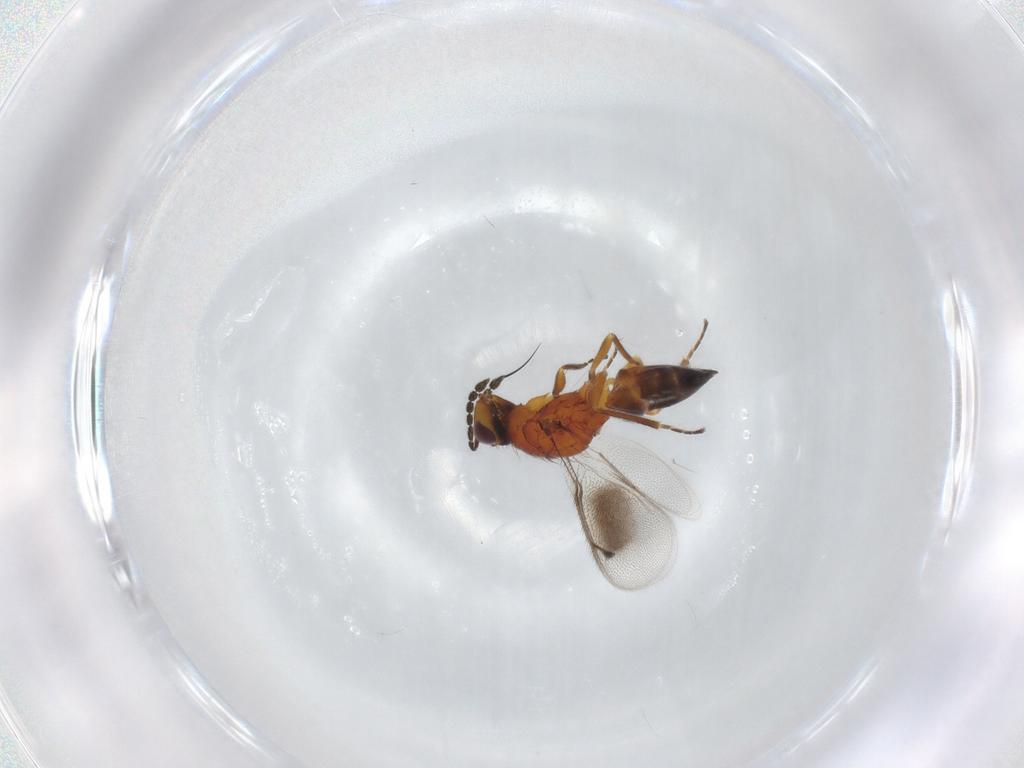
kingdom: Animalia
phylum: Arthropoda
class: Insecta
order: Hymenoptera
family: Eulophidae
